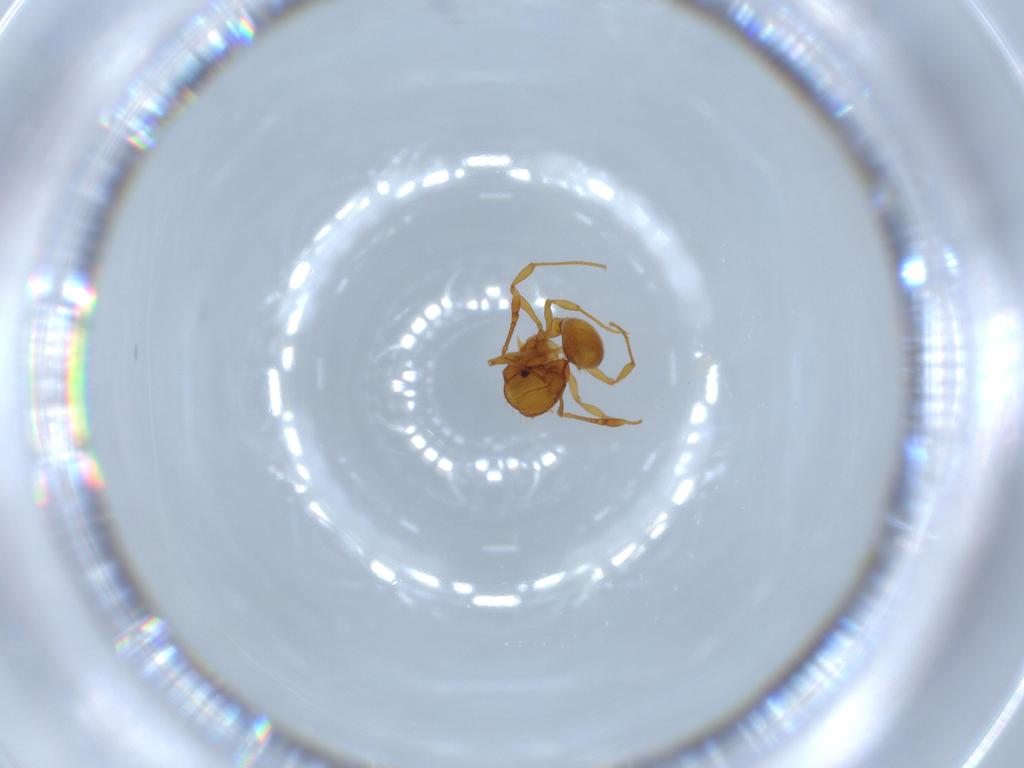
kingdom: Animalia
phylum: Arthropoda
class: Insecta
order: Hymenoptera
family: Formicidae
